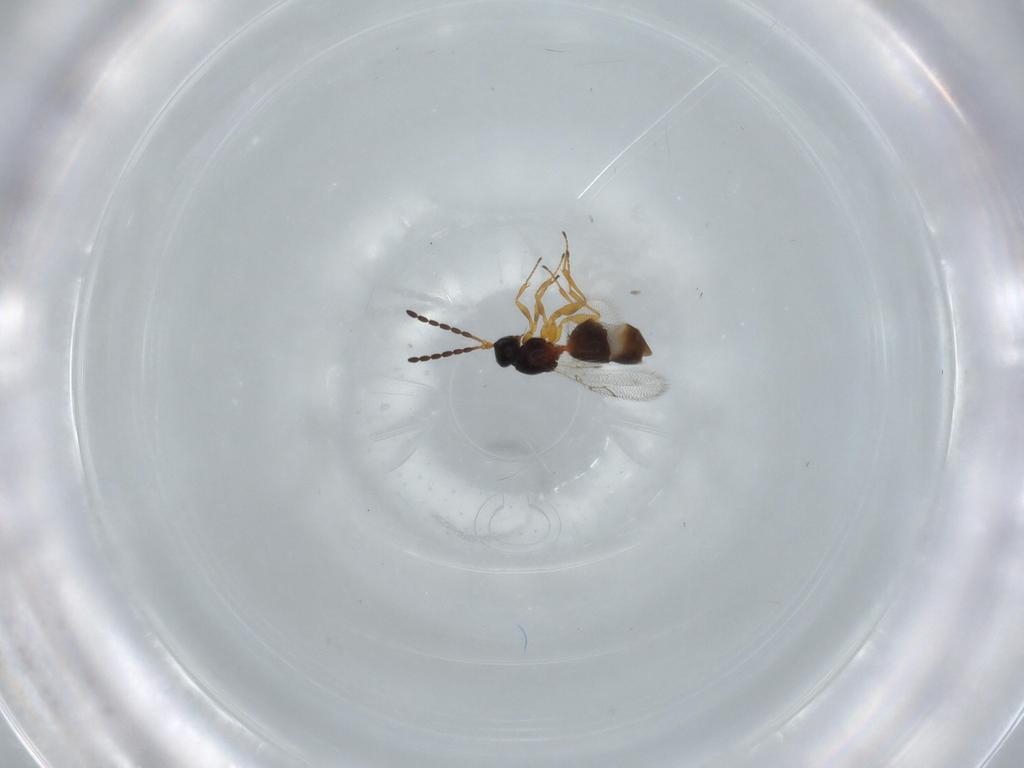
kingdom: Animalia
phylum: Arthropoda
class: Insecta
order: Hymenoptera
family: Figitidae
